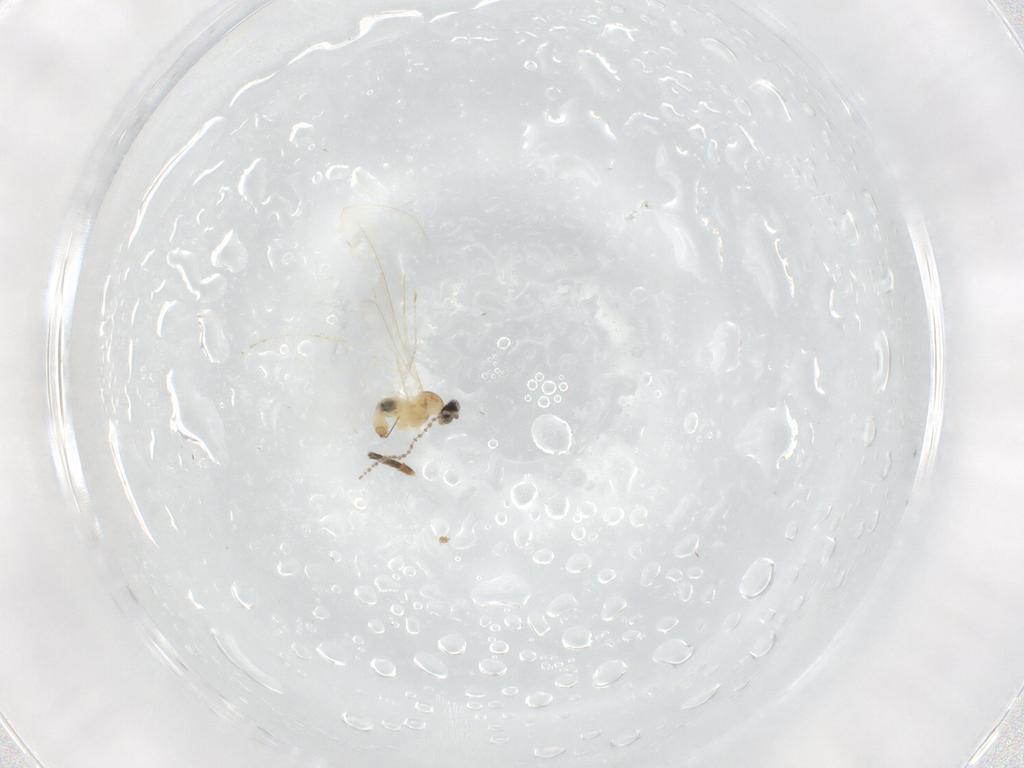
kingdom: Animalia
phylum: Arthropoda
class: Insecta
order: Diptera
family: Cecidomyiidae
